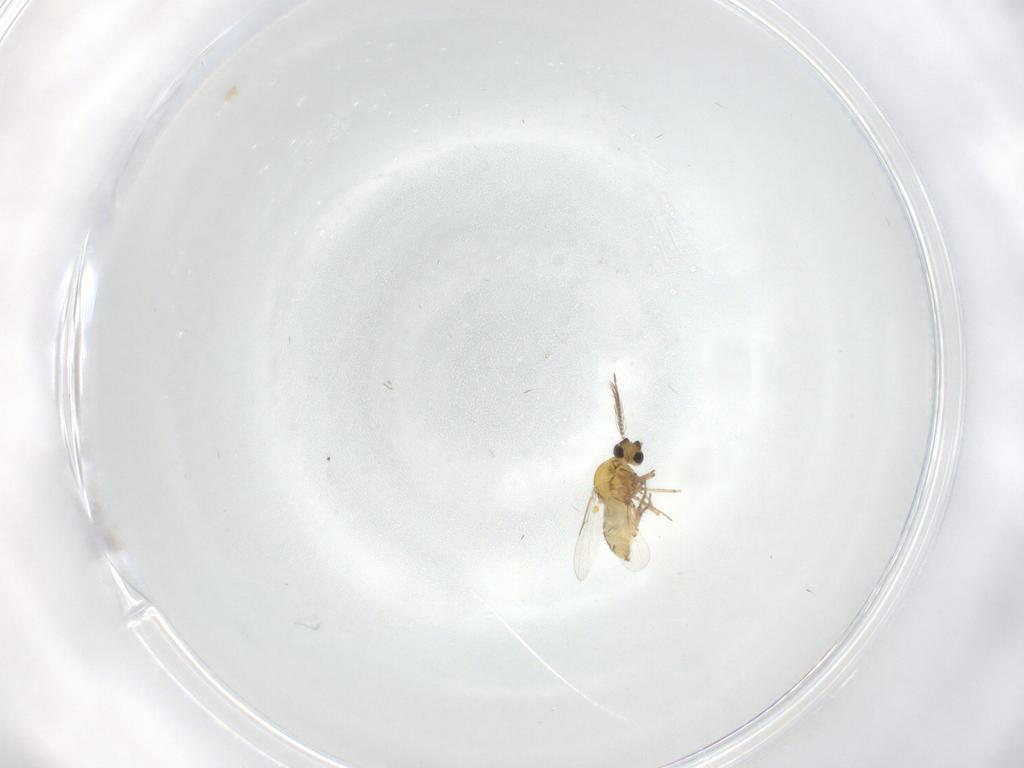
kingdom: Animalia
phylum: Arthropoda
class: Insecta
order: Diptera
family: Ceratopogonidae
